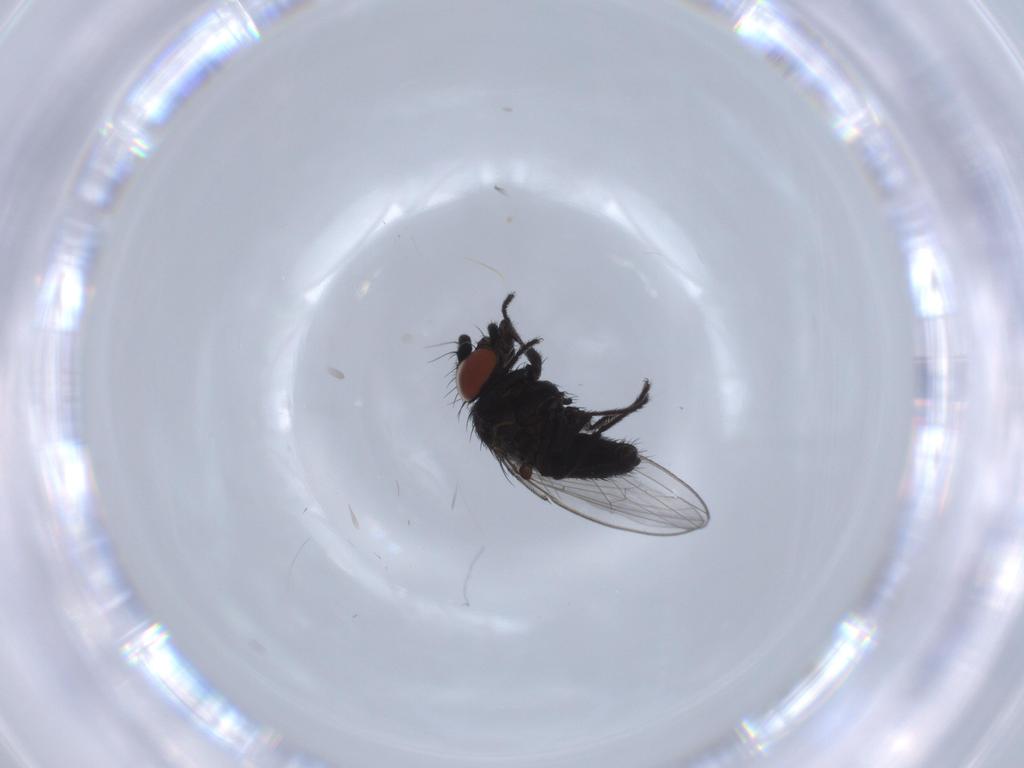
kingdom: Animalia
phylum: Arthropoda
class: Insecta
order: Diptera
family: Milichiidae
